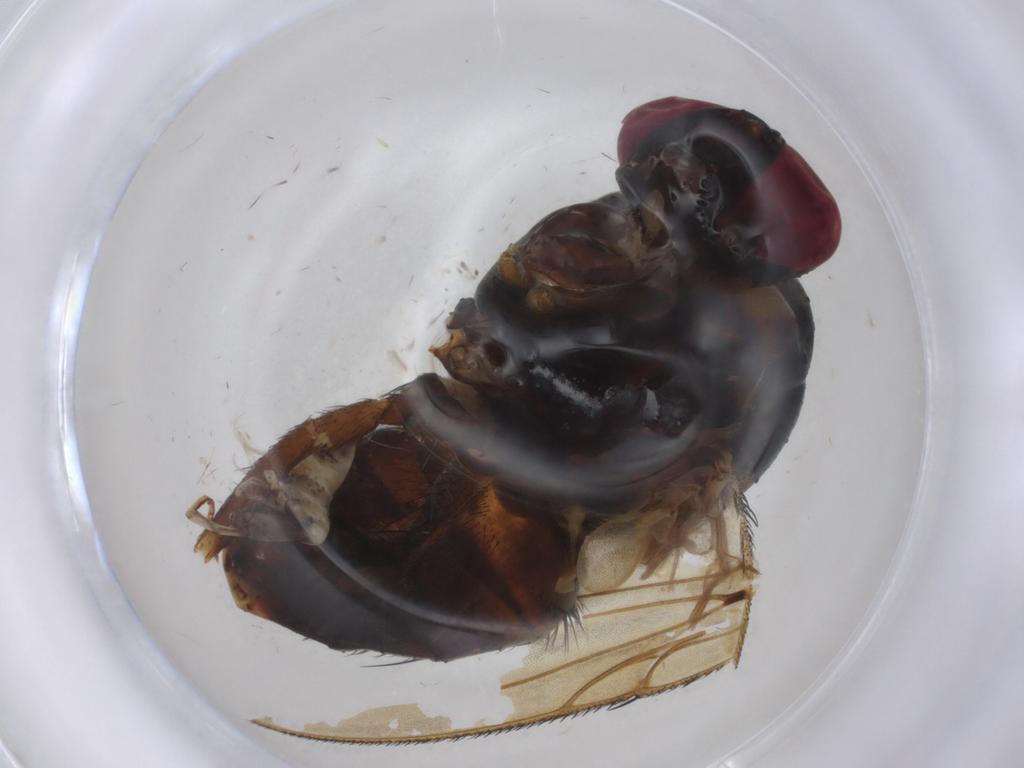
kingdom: Animalia
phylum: Arthropoda
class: Insecta
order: Diptera
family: Muscidae
